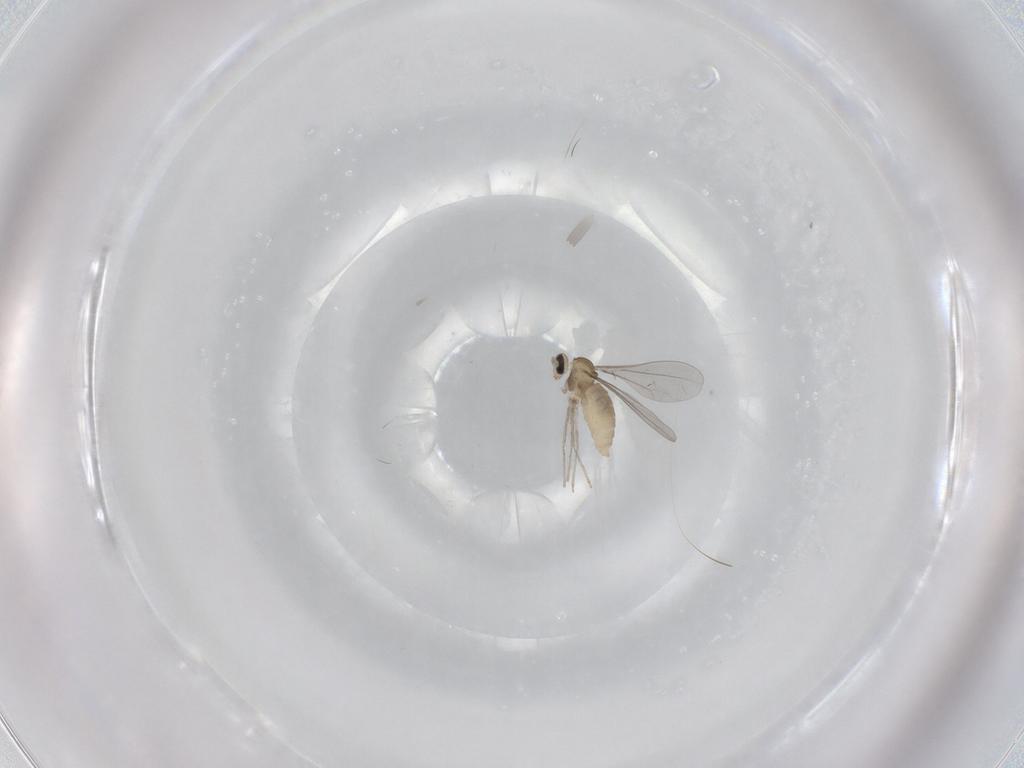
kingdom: Animalia
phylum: Arthropoda
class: Insecta
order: Diptera
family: Cecidomyiidae
